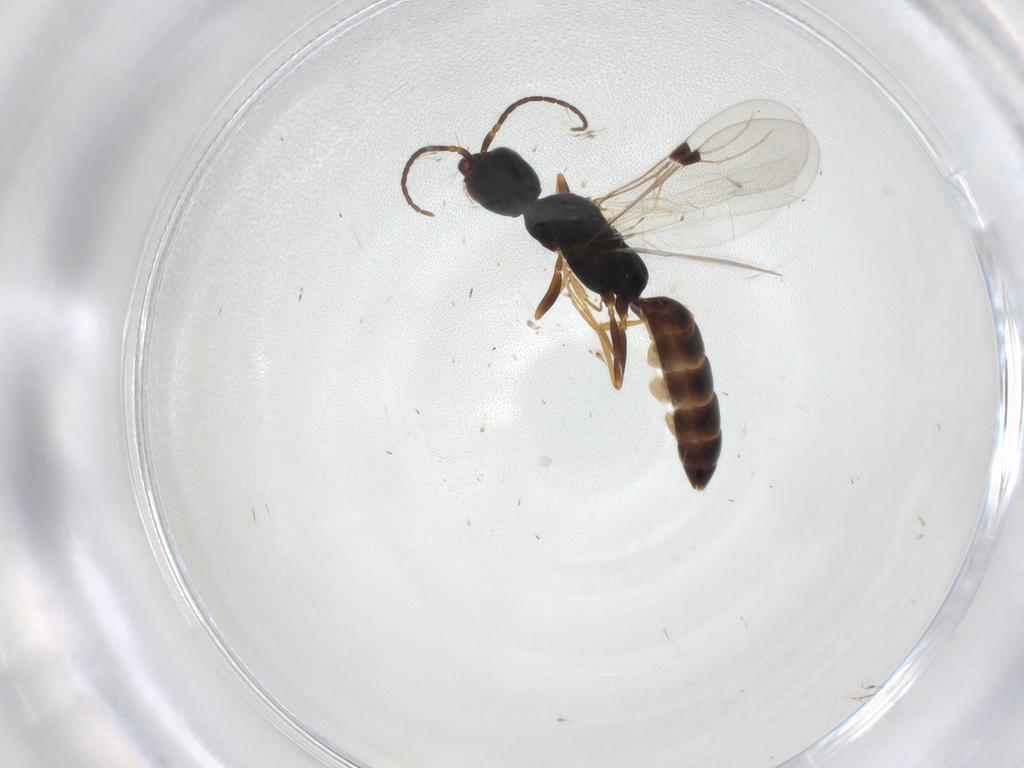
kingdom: Animalia
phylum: Arthropoda
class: Insecta
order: Hymenoptera
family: Bethylidae
